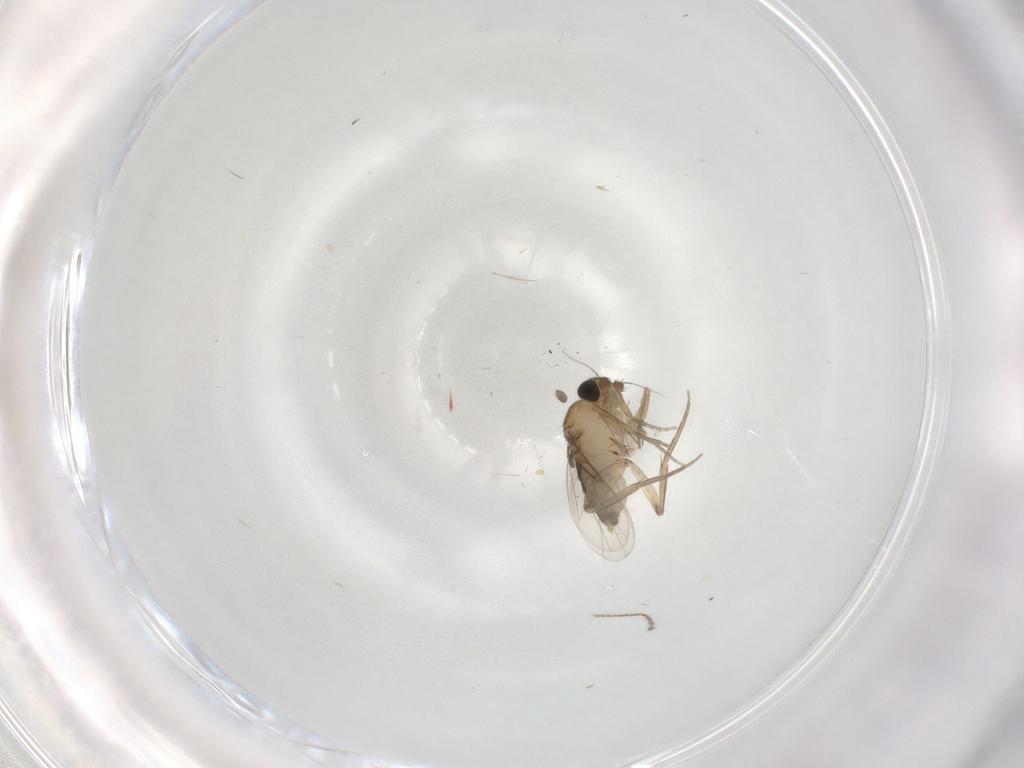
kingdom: Animalia
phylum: Arthropoda
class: Insecta
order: Diptera
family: Phoridae
